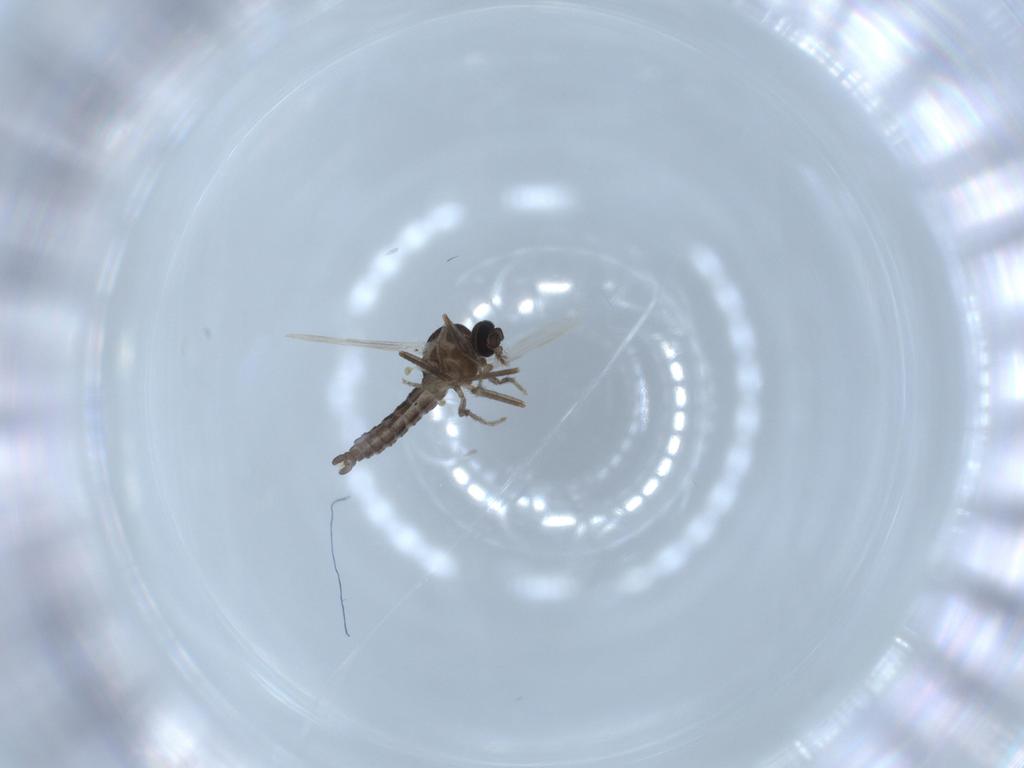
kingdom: Animalia
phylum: Arthropoda
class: Insecta
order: Diptera
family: Ceratopogonidae
